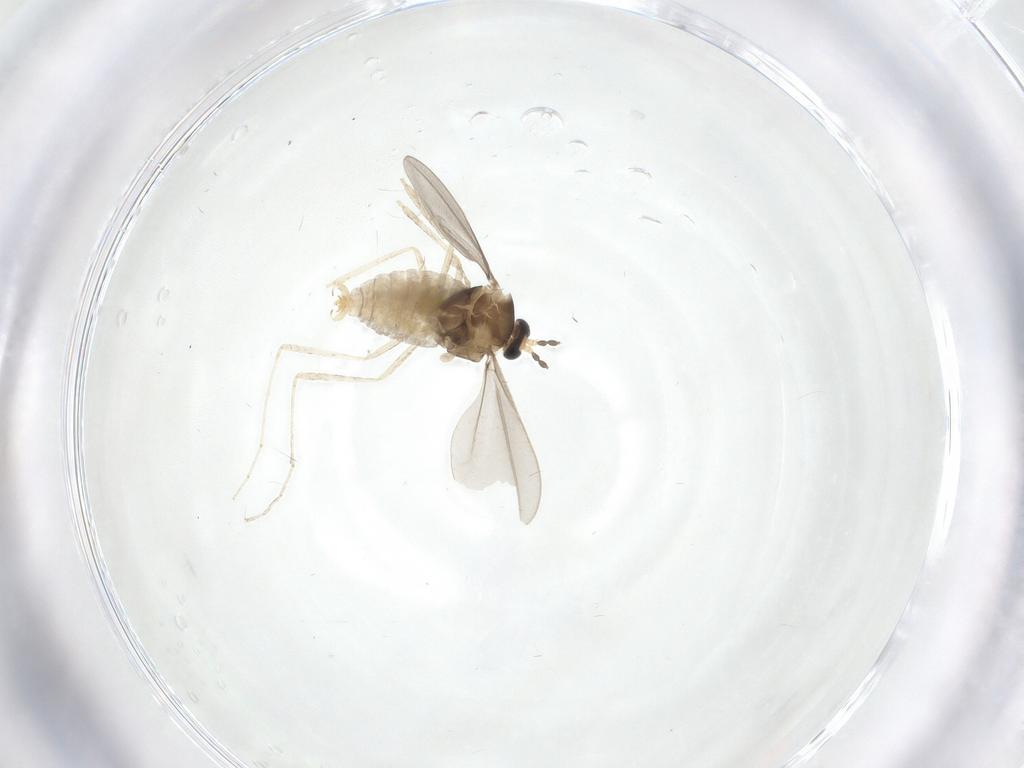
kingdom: Animalia
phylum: Arthropoda
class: Insecta
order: Diptera
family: Cecidomyiidae
